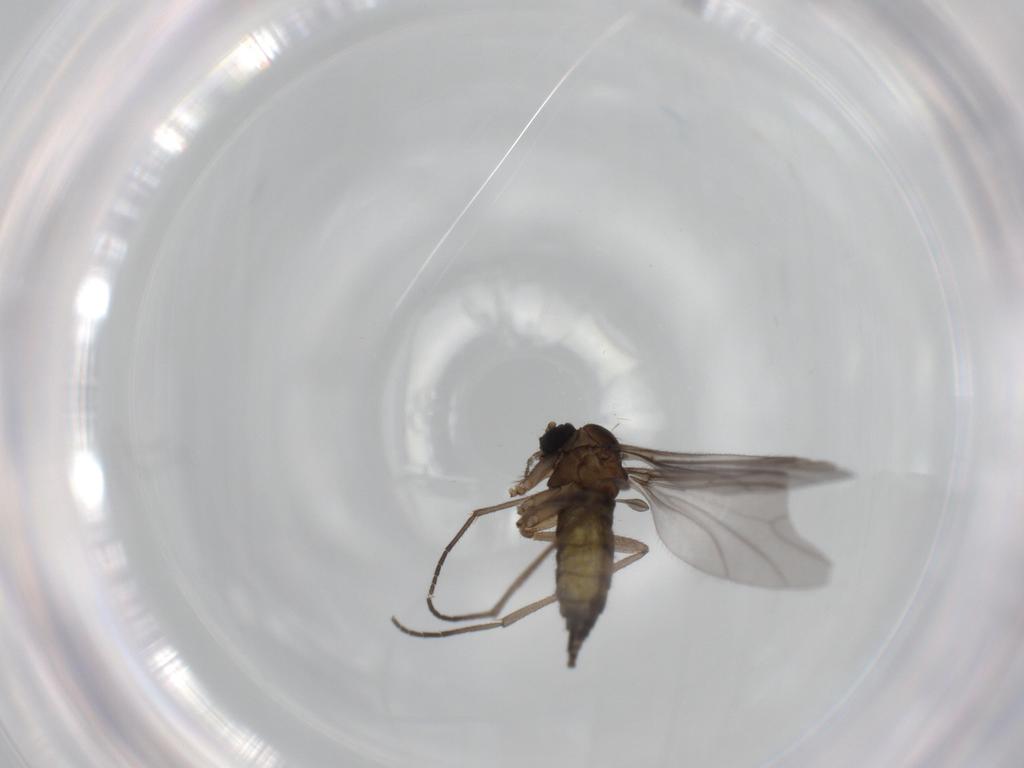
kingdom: Animalia
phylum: Arthropoda
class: Insecta
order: Diptera
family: Sciaridae
